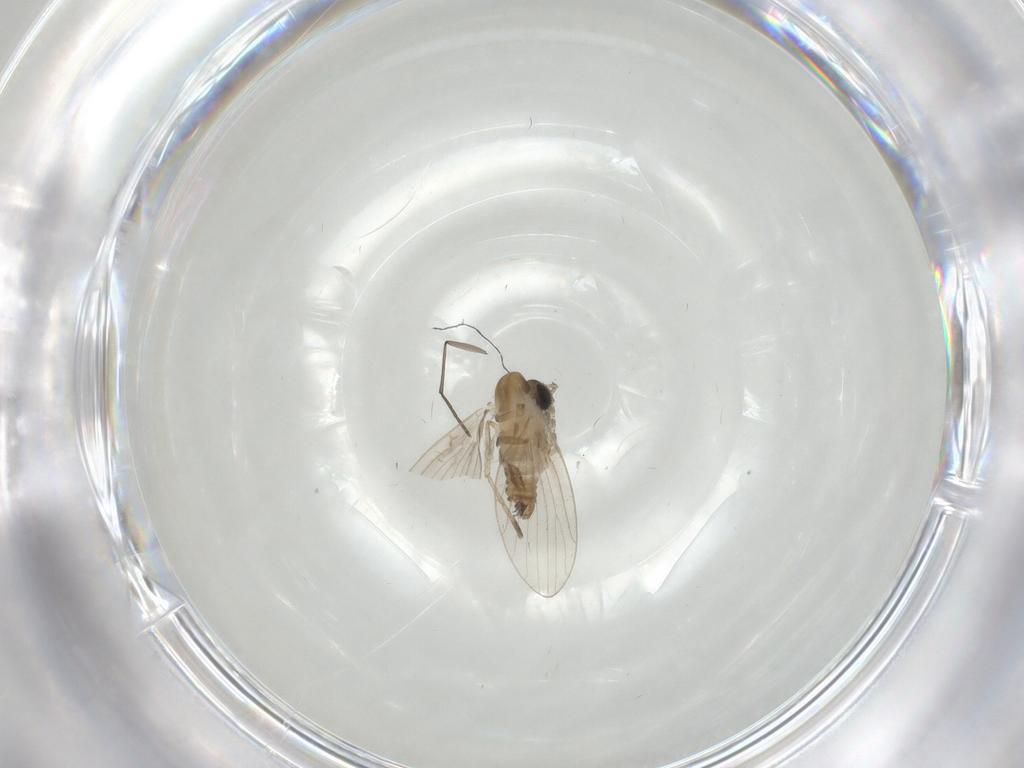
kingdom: Animalia
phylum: Arthropoda
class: Insecta
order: Diptera
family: Psychodidae
